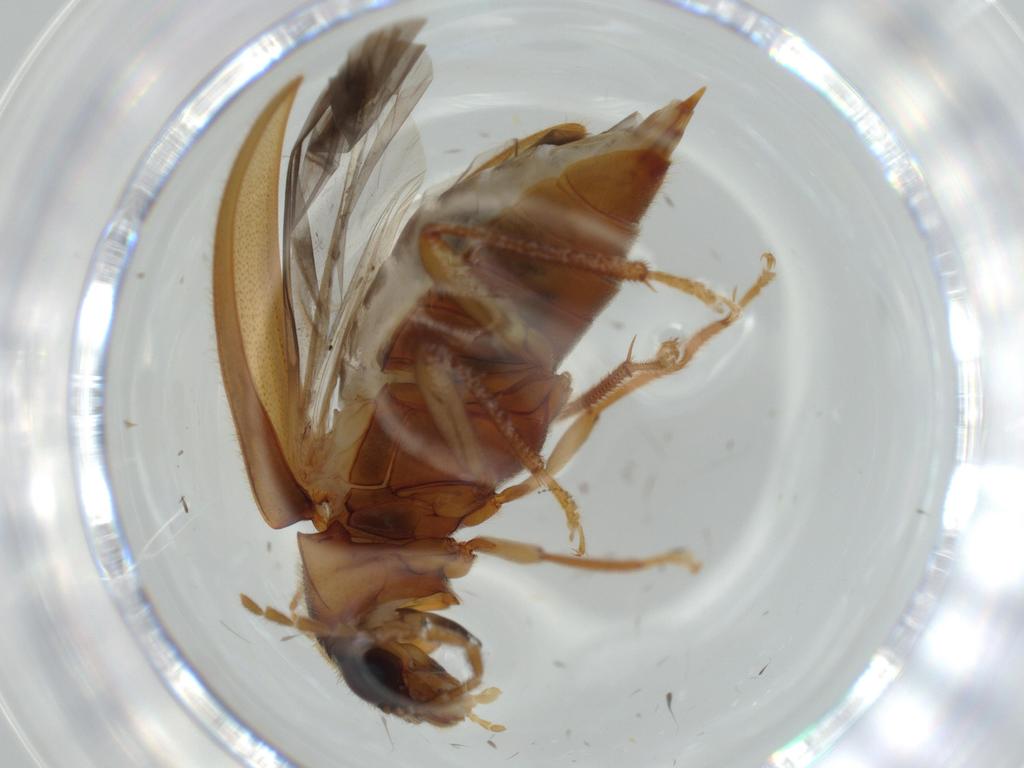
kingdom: Animalia
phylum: Arthropoda
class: Insecta
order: Coleoptera
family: Ptilodactylidae
